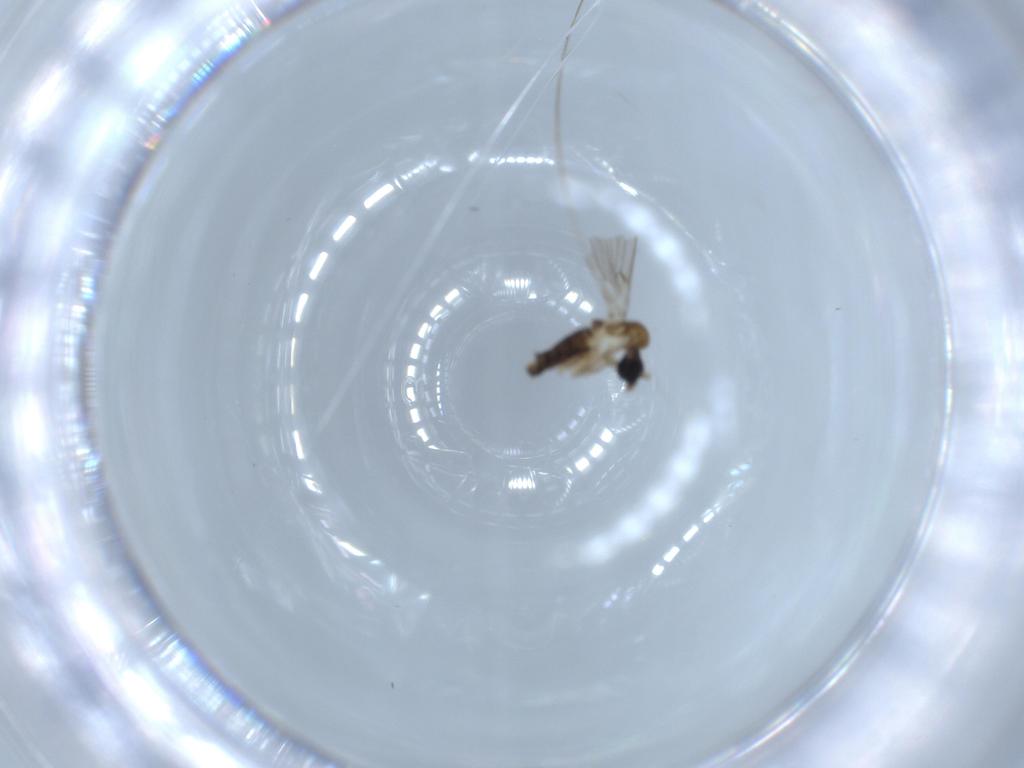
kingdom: Animalia
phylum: Arthropoda
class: Insecta
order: Diptera
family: Psychodidae
